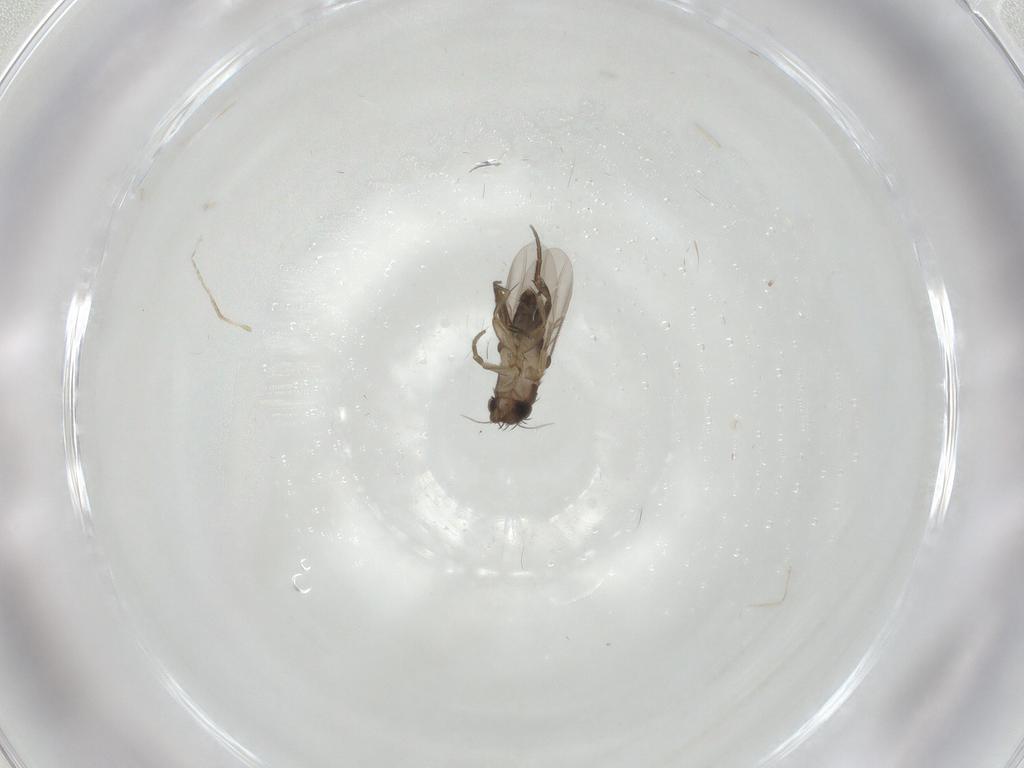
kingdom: Animalia
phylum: Arthropoda
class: Insecta
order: Diptera
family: Phoridae
